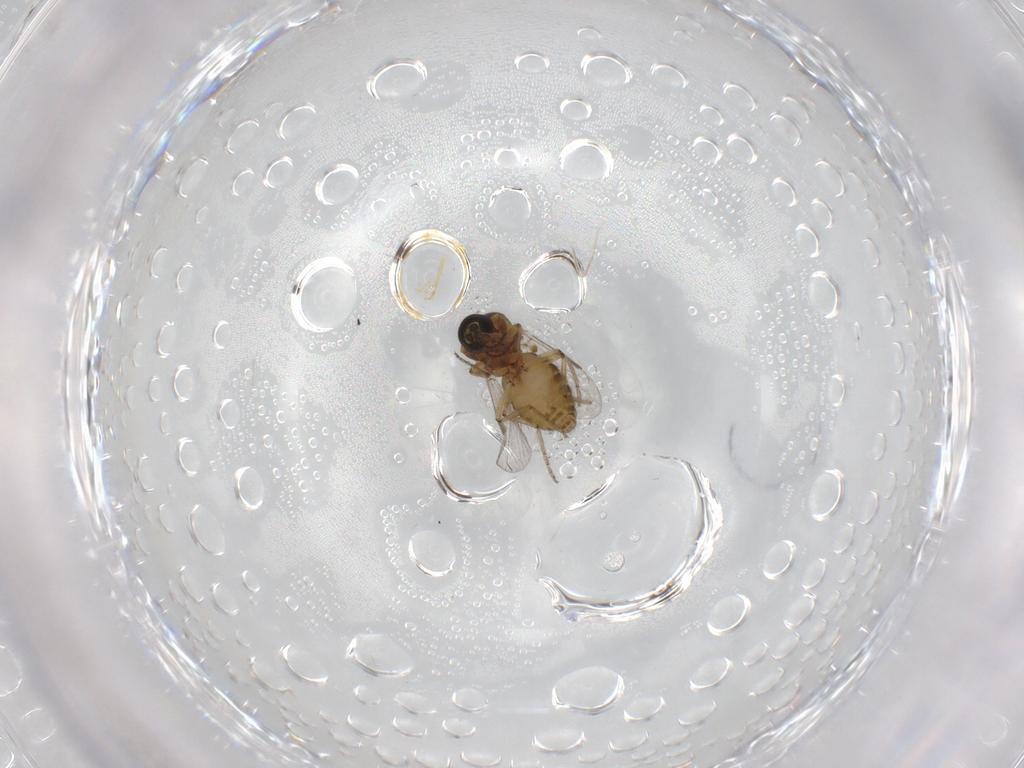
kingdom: Animalia
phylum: Arthropoda
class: Insecta
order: Diptera
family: Ceratopogonidae
